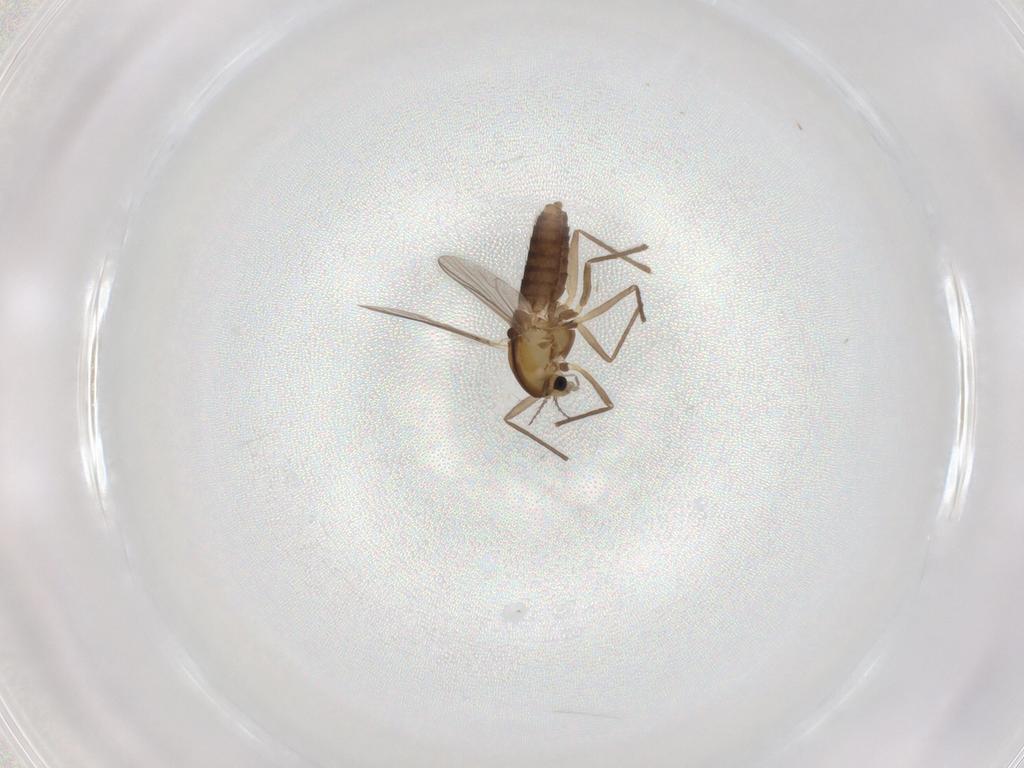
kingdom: Animalia
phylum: Arthropoda
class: Insecta
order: Diptera
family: Chironomidae
